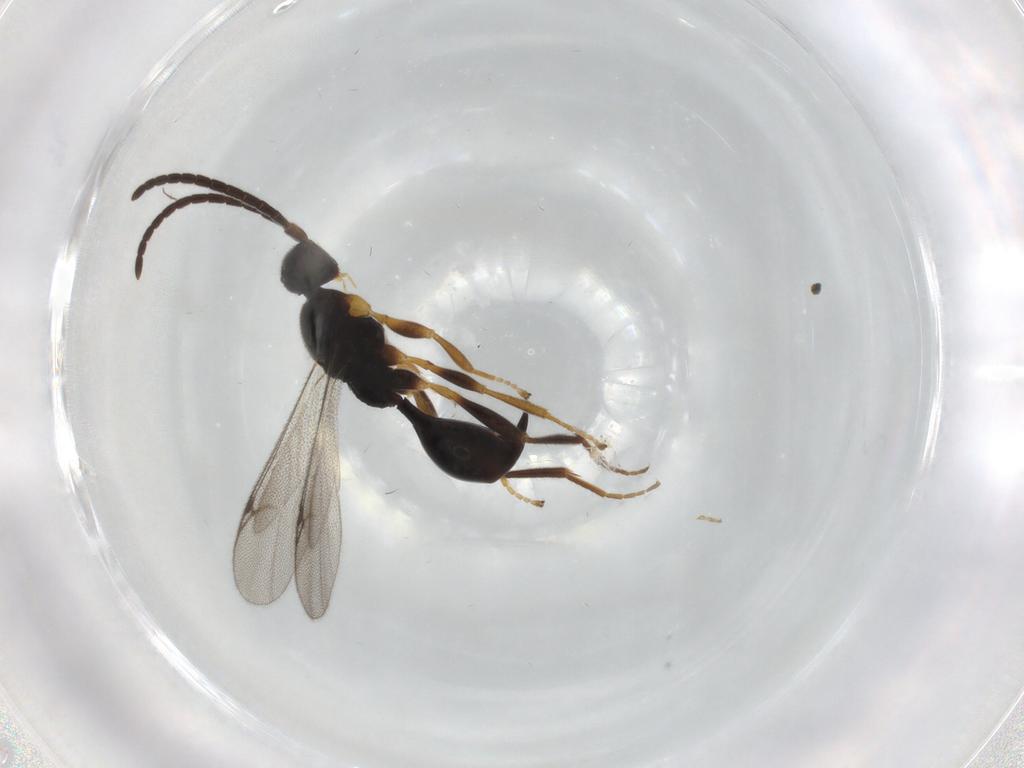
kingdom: Animalia
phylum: Arthropoda
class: Insecta
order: Hymenoptera
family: Proctotrupidae
